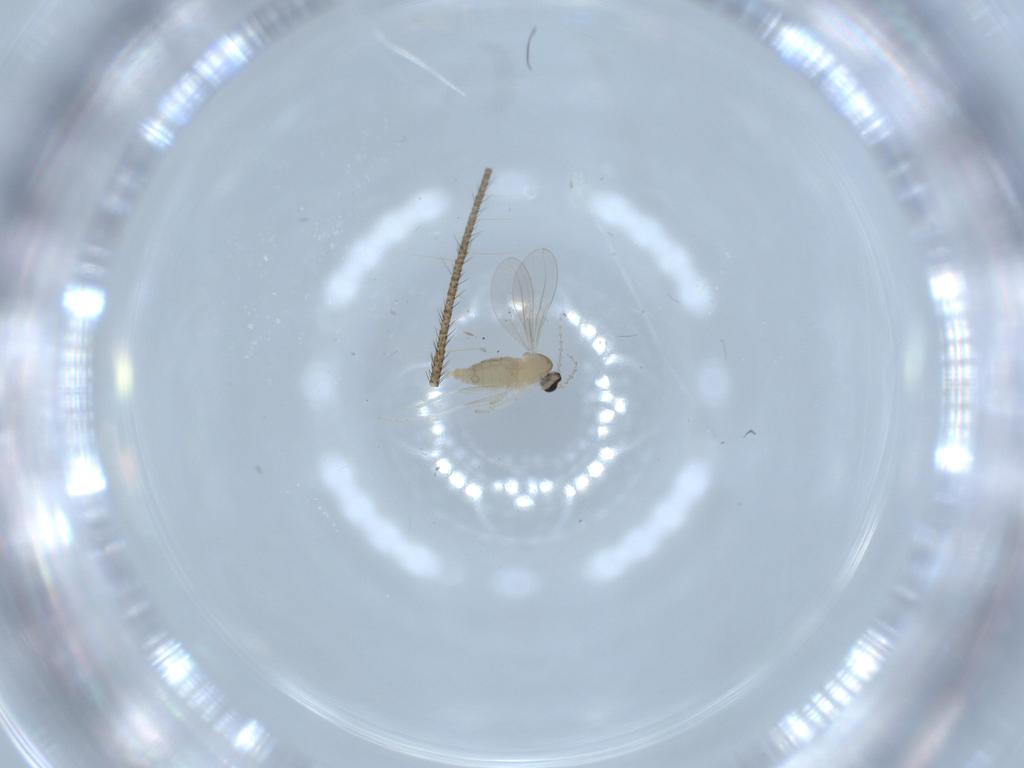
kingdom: Animalia
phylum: Arthropoda
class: Insecta
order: Diptera
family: Cecidomyiidae
